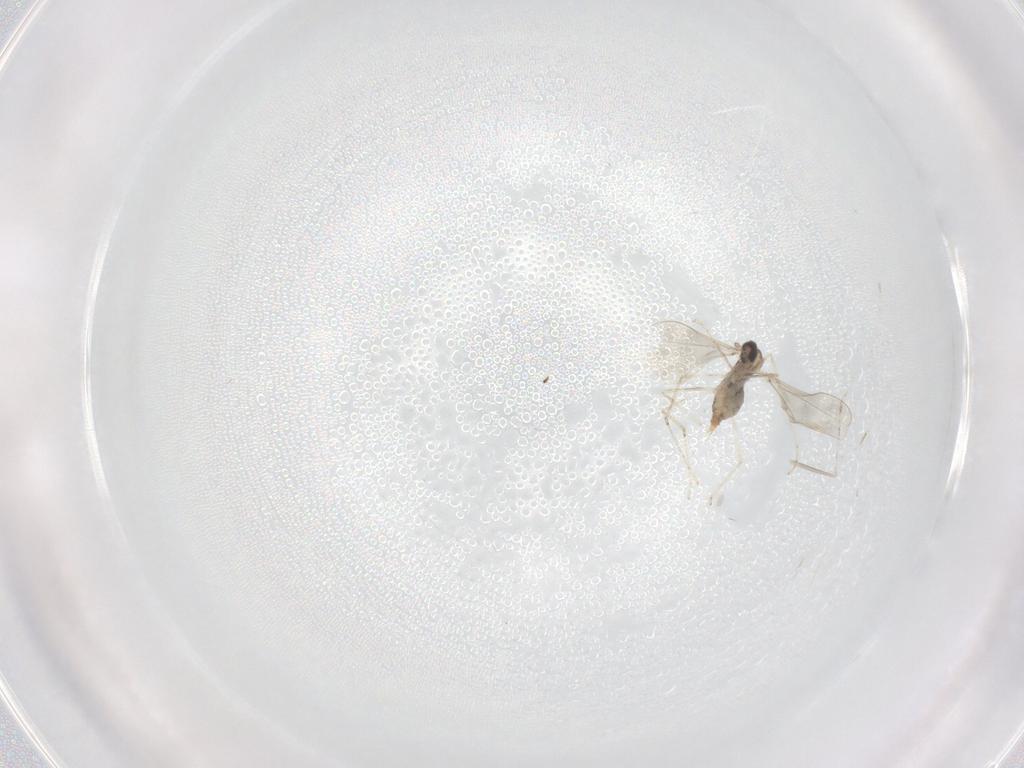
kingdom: Animalia
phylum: Arthropoda
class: Insecta
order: Diptera
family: Cecidomyiidae
